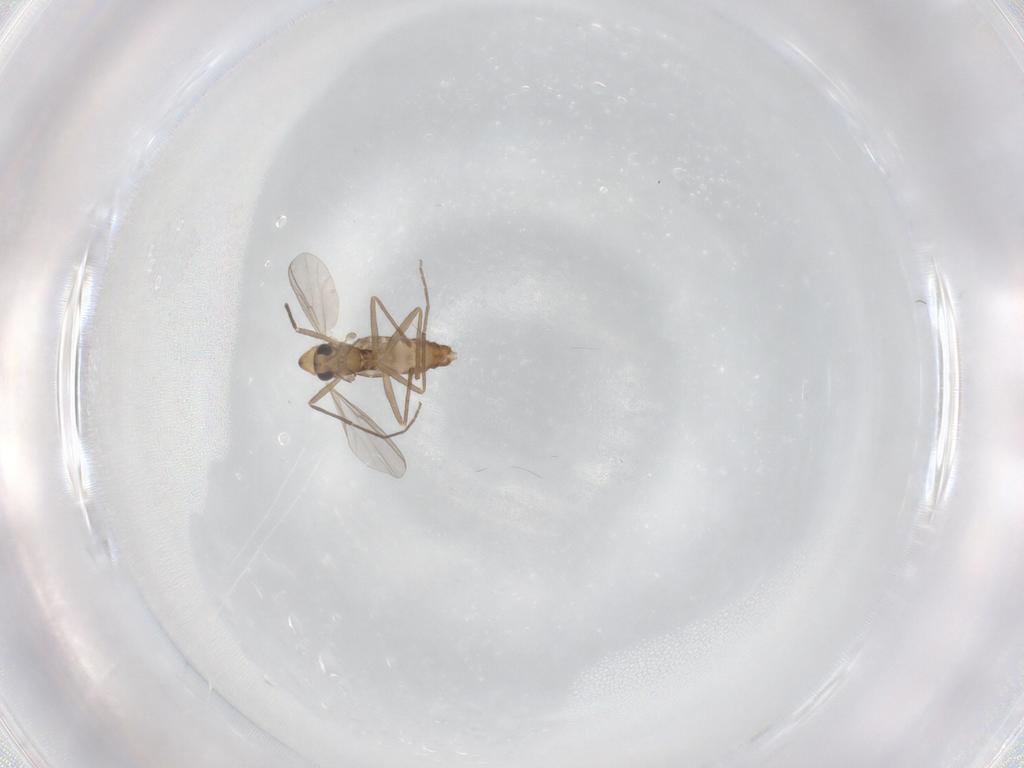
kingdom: Animalia
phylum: Arthropoda
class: Insecta
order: Diptera
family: Chironomidae
